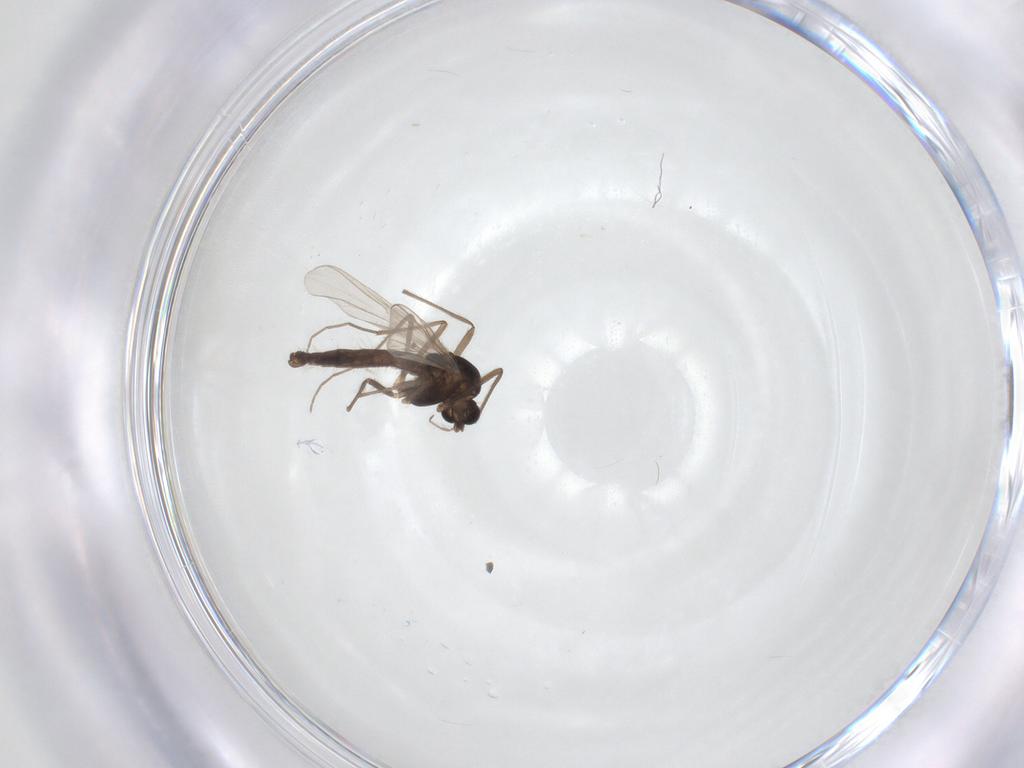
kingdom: Animalia
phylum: Arthropoda
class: Insecta
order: Diptera
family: Chironomidae
